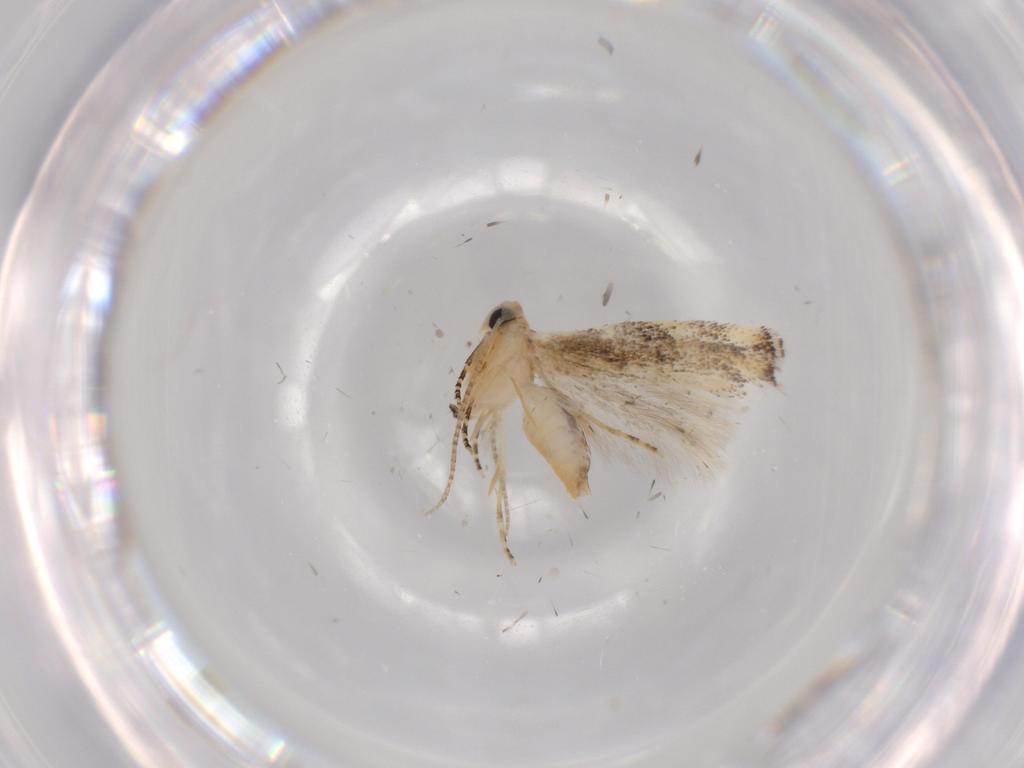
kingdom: Animalia
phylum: Arthropoda
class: Insecta
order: Lepidoptera
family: Bucculatricidae
